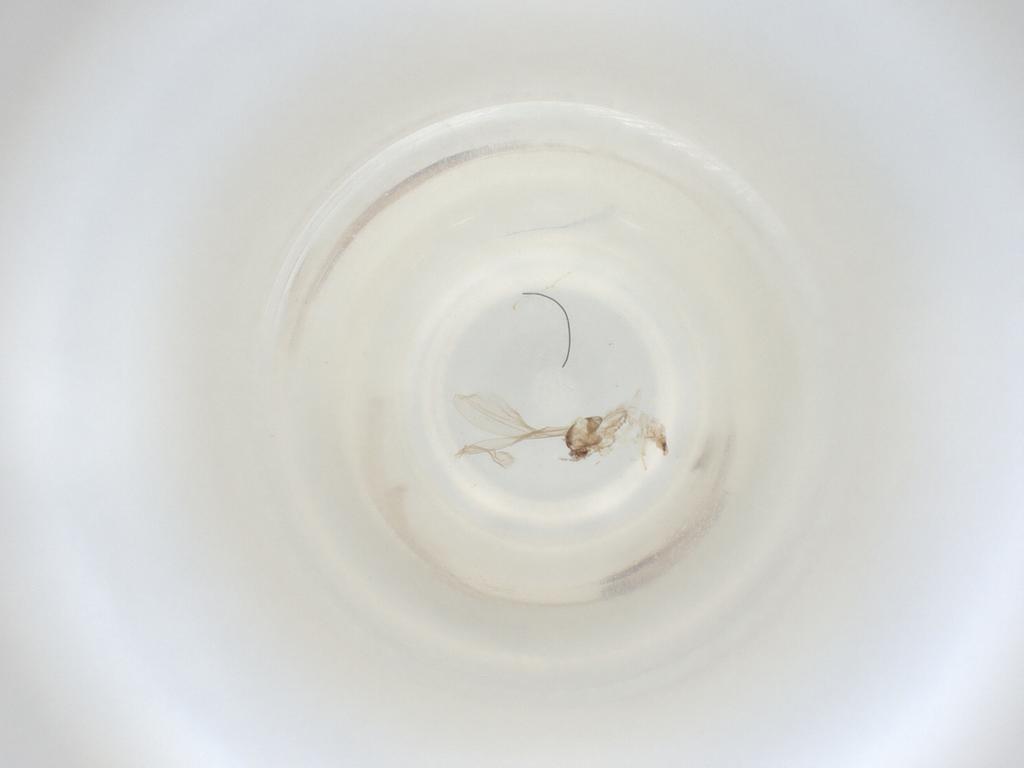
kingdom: Animalia
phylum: Arthropoda
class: Insecta
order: Diptera
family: Cecidomyiidae
